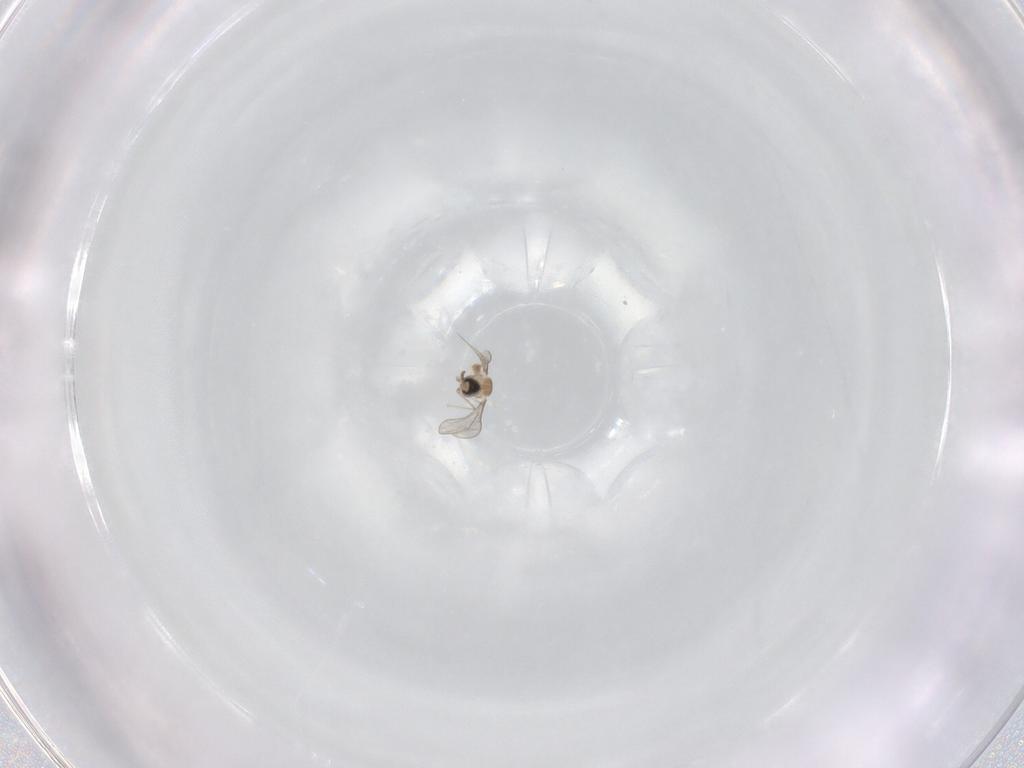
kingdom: Animalia
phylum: Arthropoda
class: Insecta
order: Diptera
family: Cecidomyiidae
